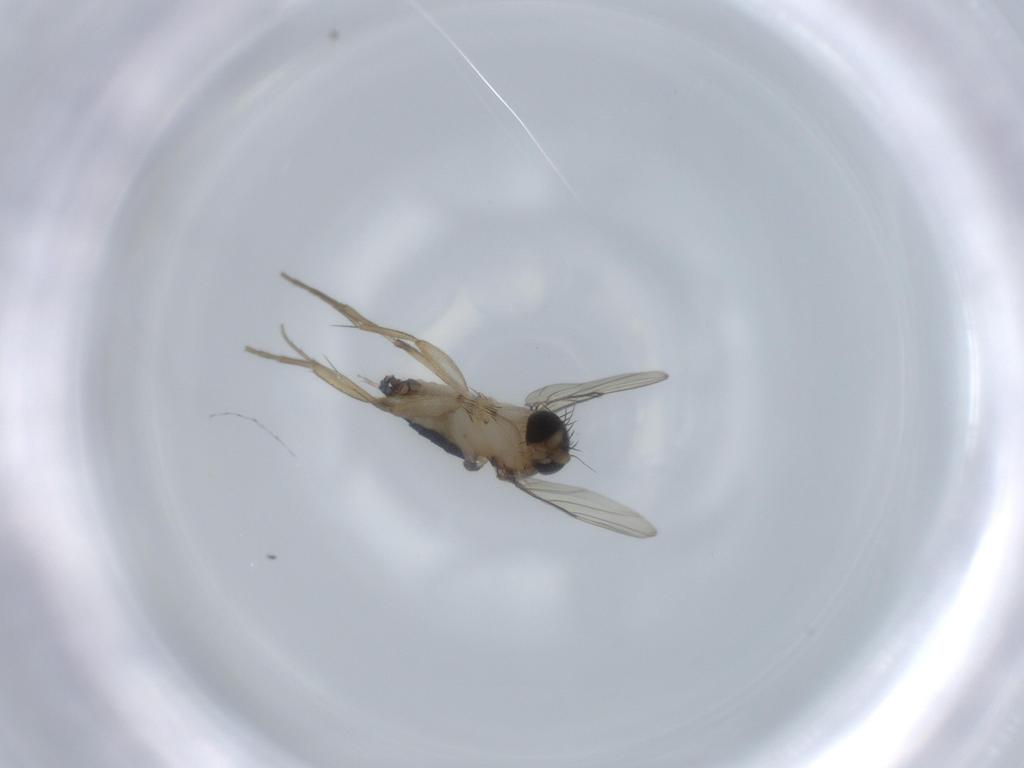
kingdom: Animalia
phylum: Arthropoda
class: Insecta
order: Diptera
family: Phoridae
